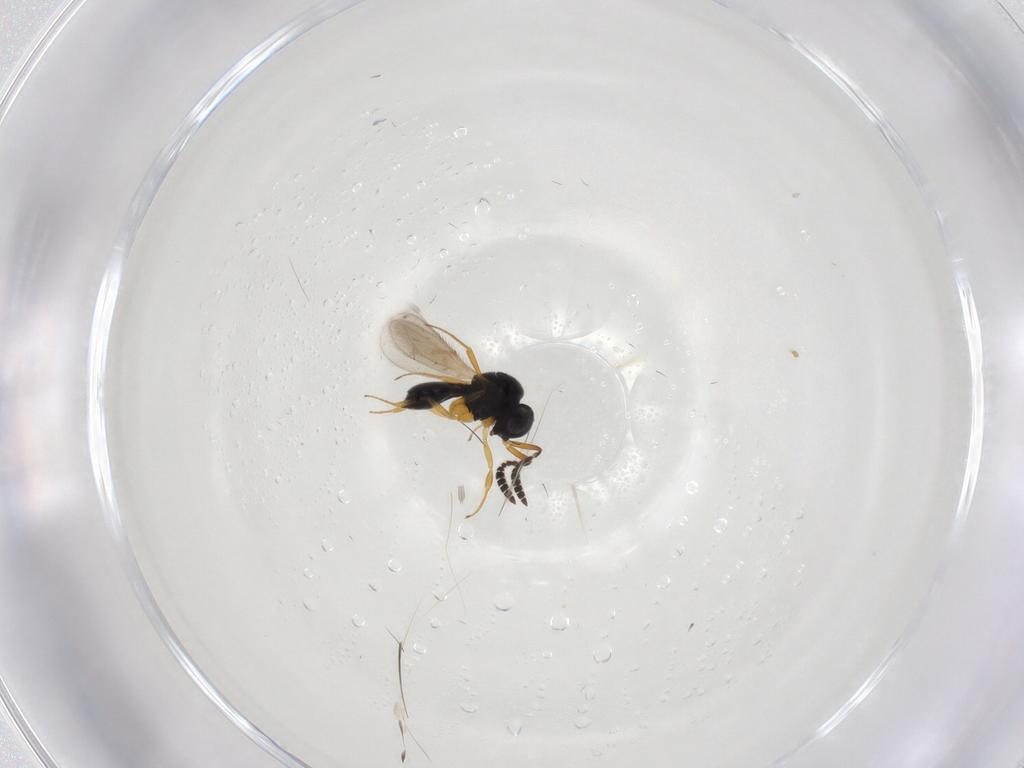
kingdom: Animalia
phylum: Arthropoda
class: Insecta
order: Hymenoptera
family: Scelionidae
